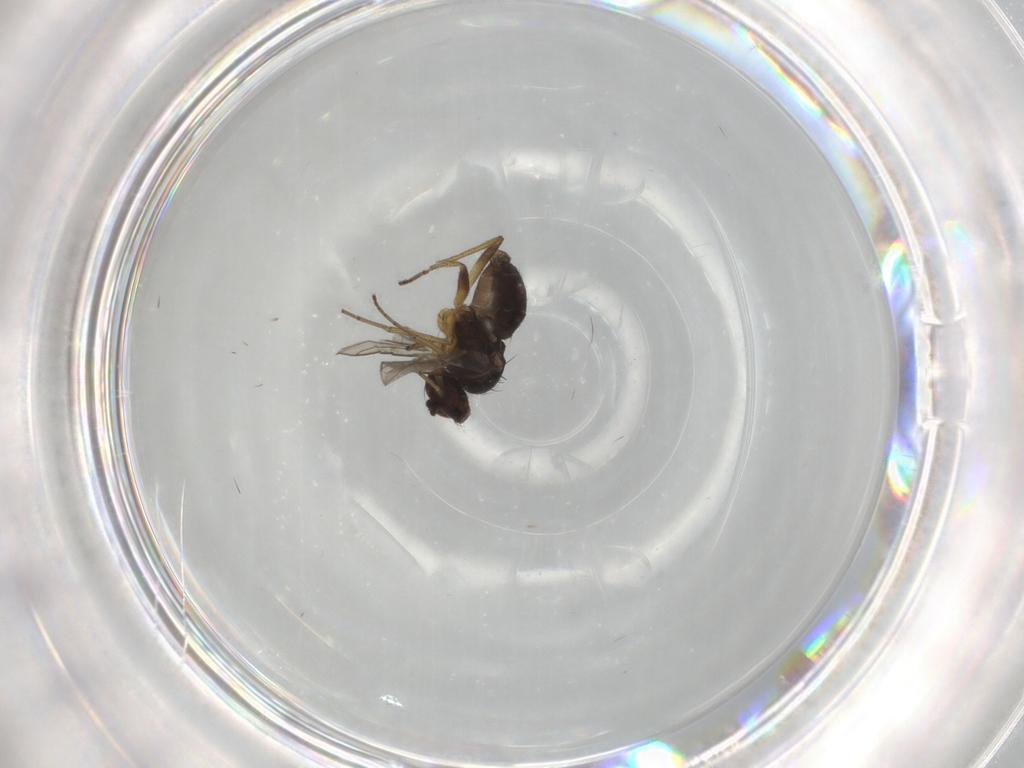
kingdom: Animalia
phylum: Arthropoda
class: Insecta
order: Diptera
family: Dolichopodidae
